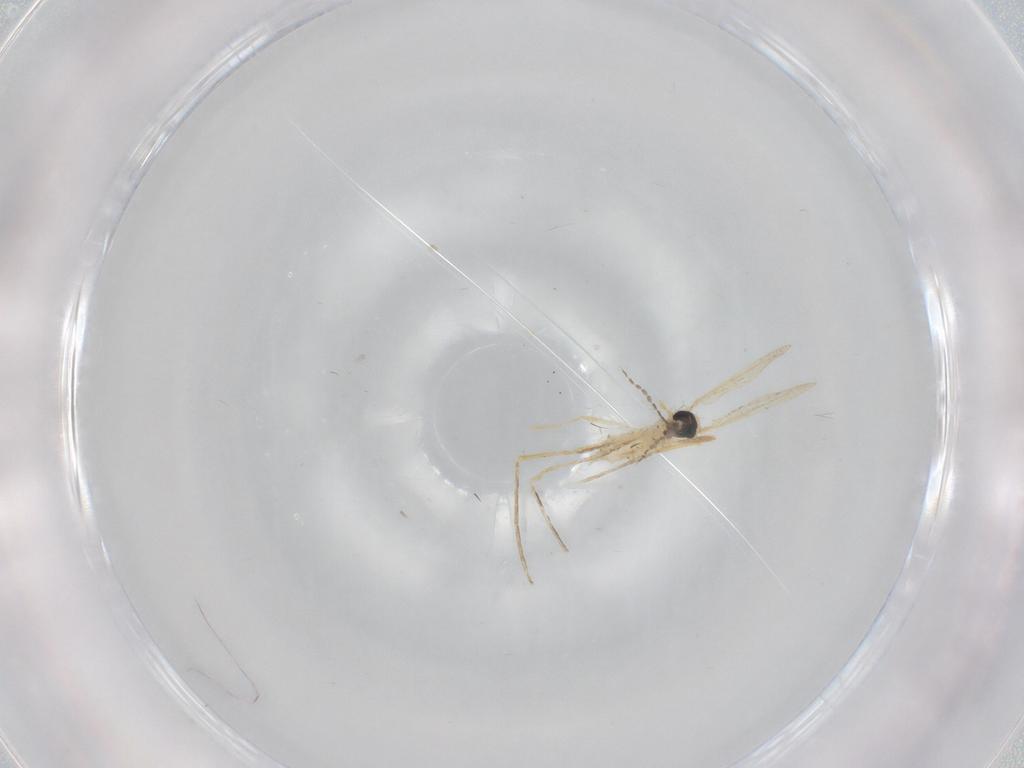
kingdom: Animalia
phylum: Arthropoda
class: Insecta
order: Diptera
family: Cecidomyiidae
